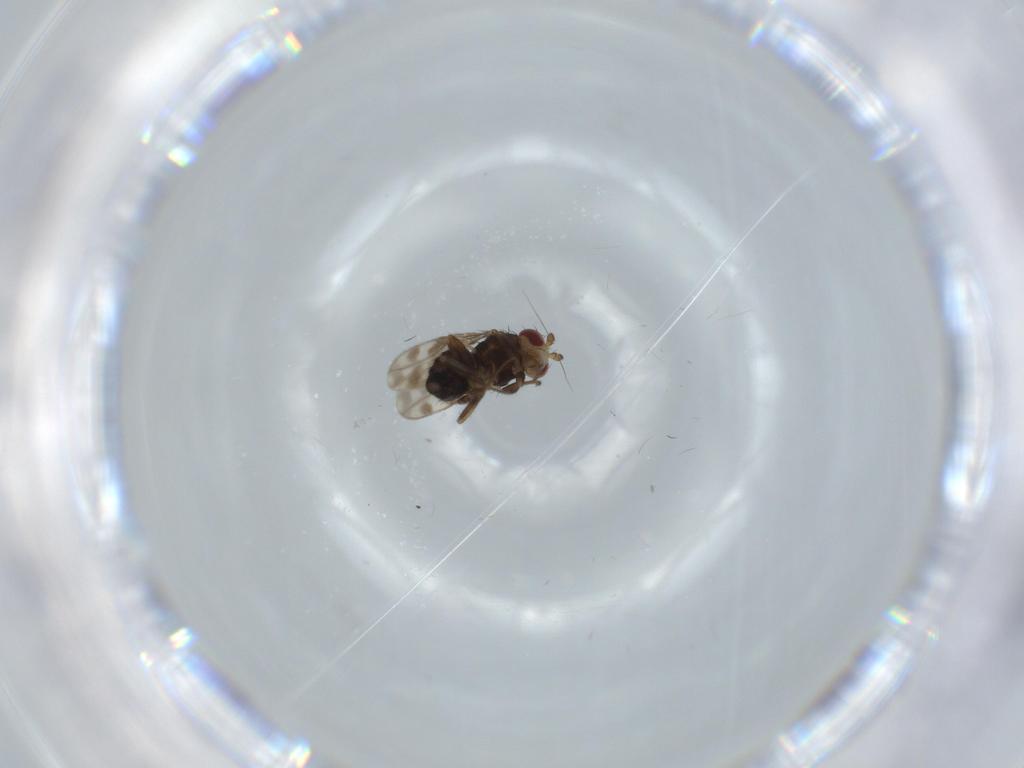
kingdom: Animalia
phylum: Arthropoda
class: Insecta
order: Diptera
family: Sphaeroceridae
